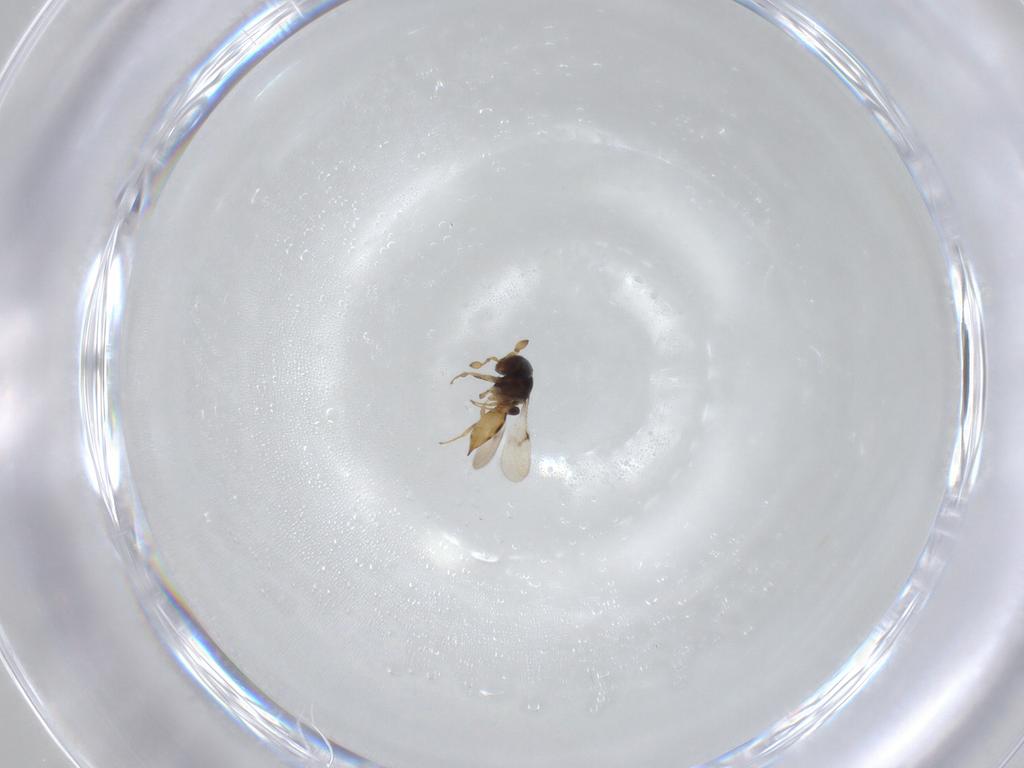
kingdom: Animalia
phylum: Arthropoda
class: Insecta
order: Hymenoptera
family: Scelionidae
